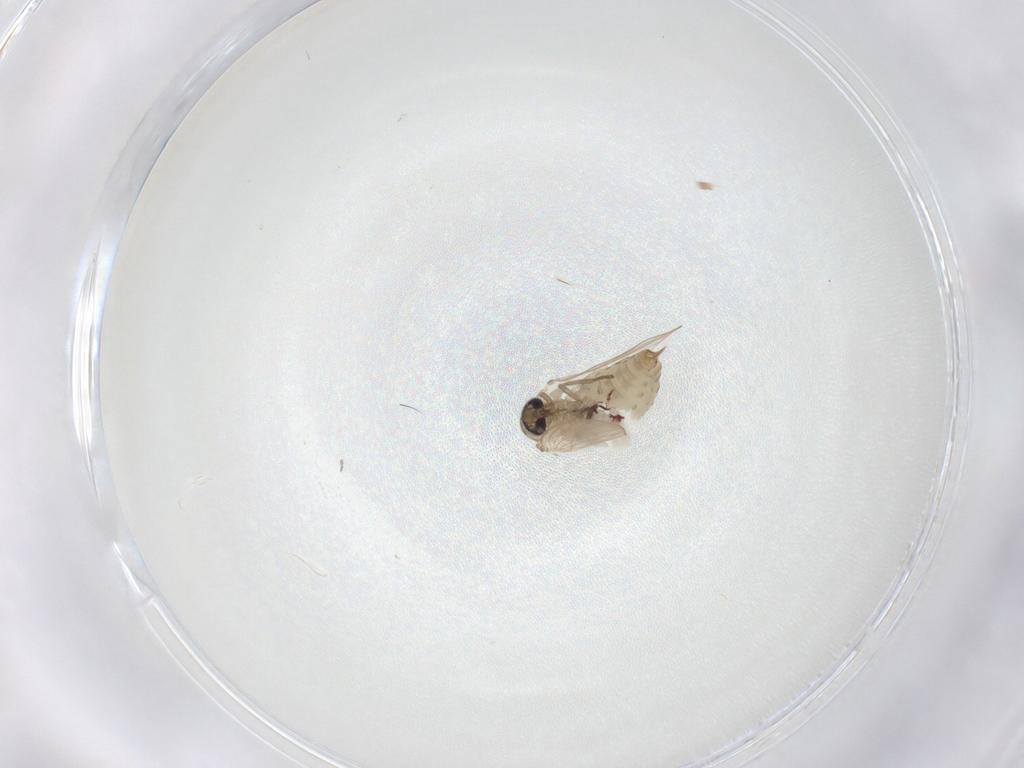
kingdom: Animalia
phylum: Arthropoda
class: Insecta
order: Diptera
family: Psychodidae
